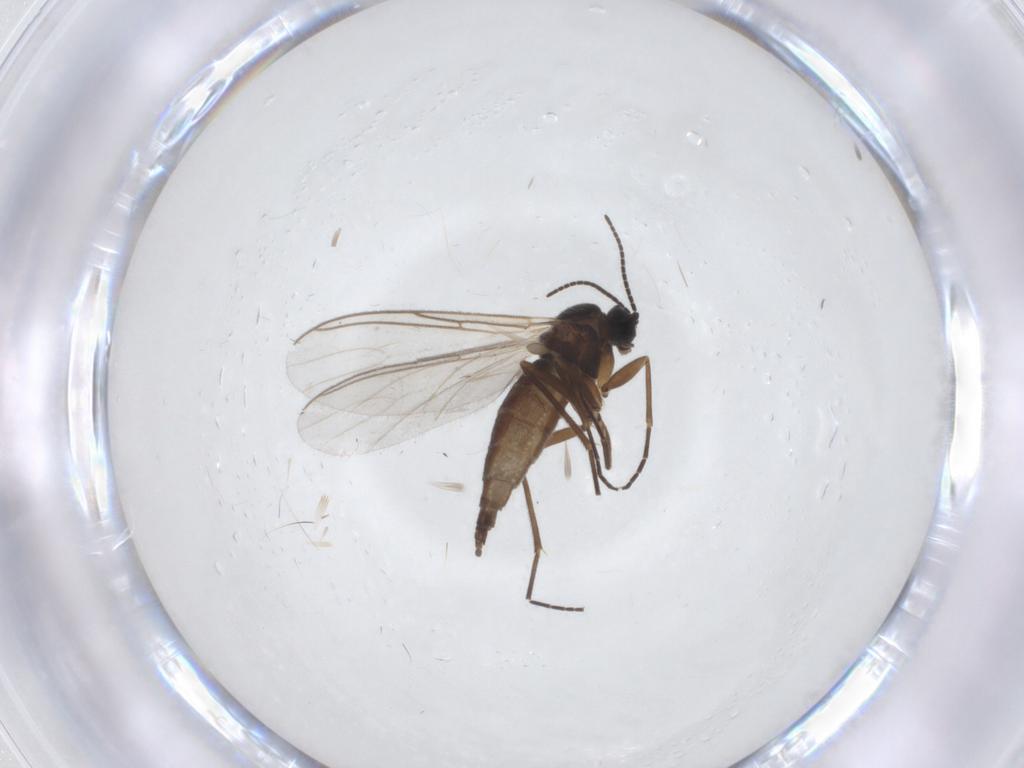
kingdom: Animalia
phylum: Arthropoda
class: Insecta
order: Diptera
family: Sciaridae
